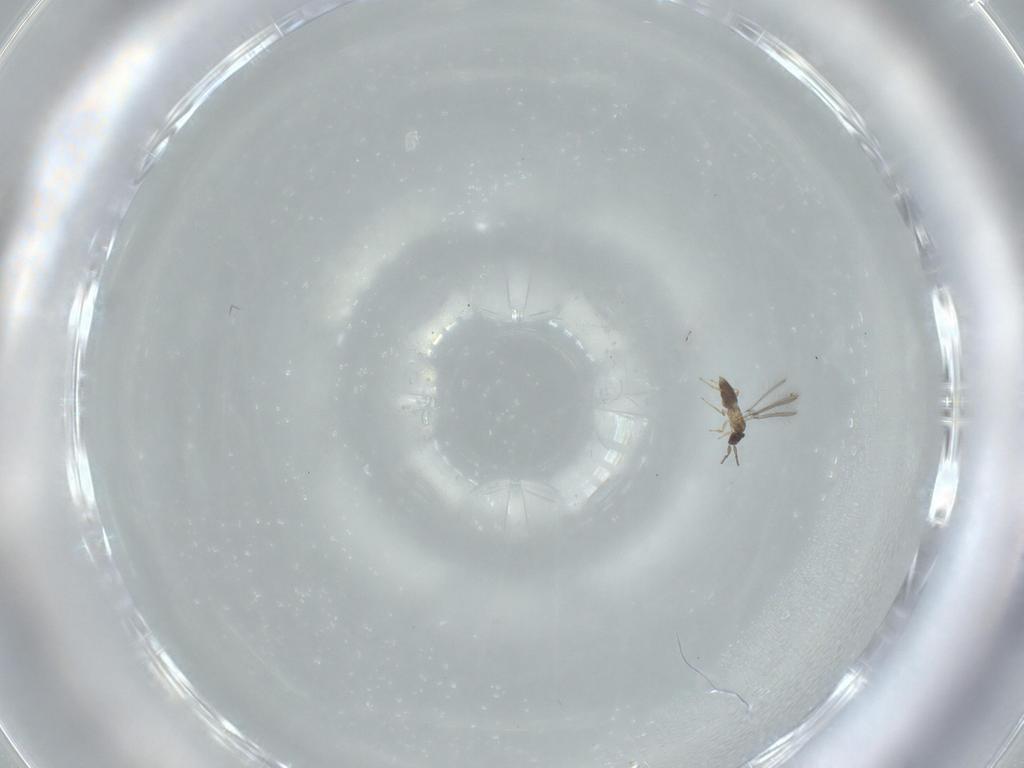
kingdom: Animalia
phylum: Arthropoda
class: Insecta
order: Hymenoptera
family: Mymaridae
